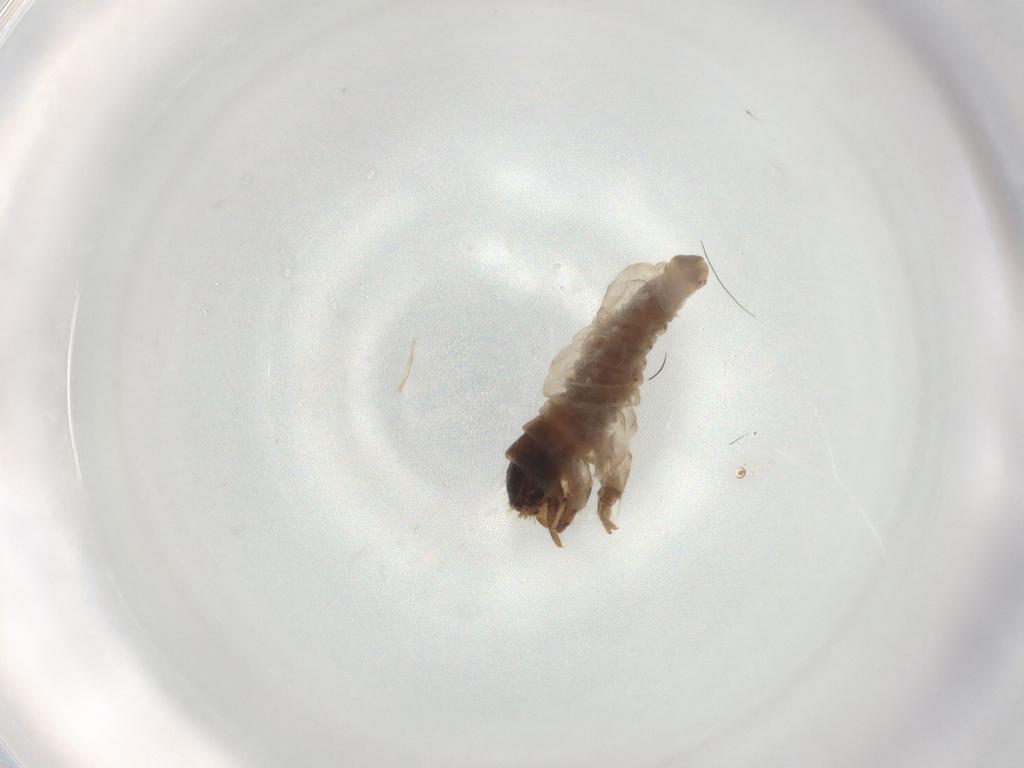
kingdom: Animalia
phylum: Arthropoda
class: Insecta
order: Lepidoptera
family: Psychidae
